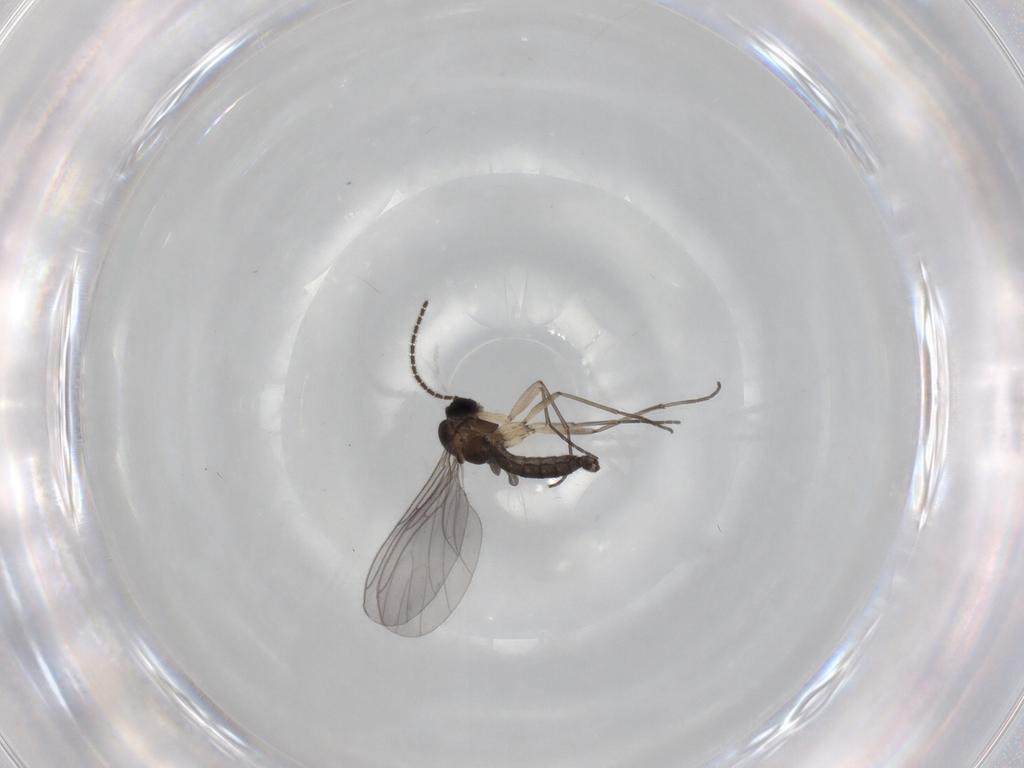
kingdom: Animalia
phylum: Arthropoda
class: Insecta
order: Diptera
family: Sciaridae
